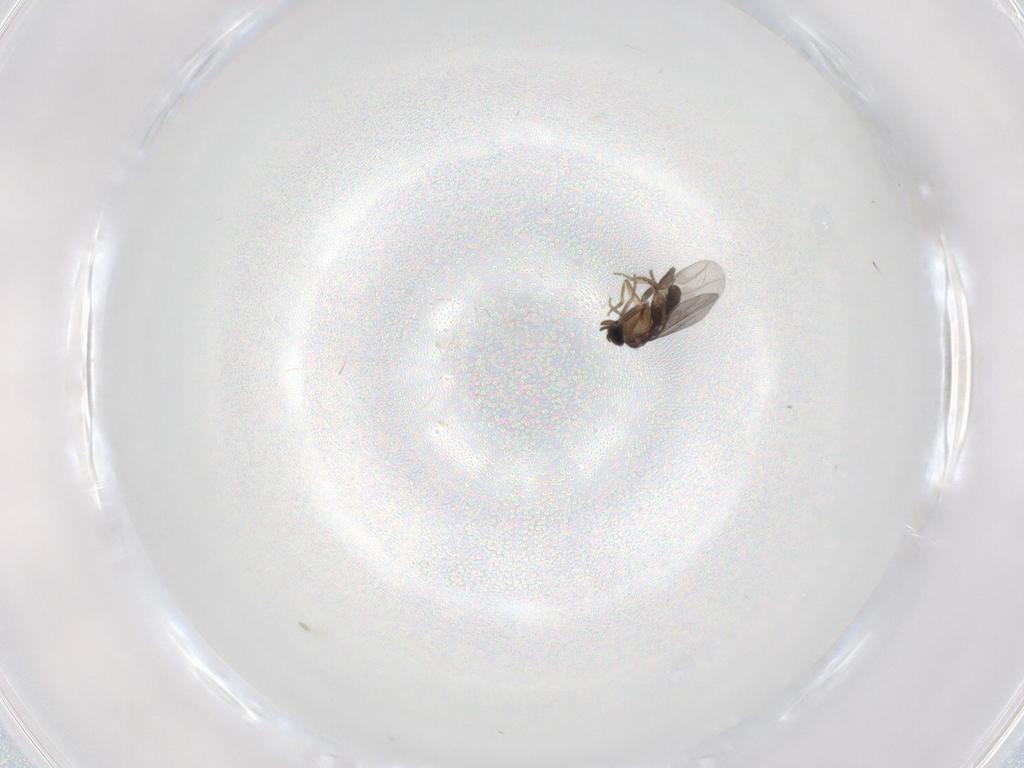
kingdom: Animalia
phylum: Arthropoda
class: Insecta
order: Diptera
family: Stratiomyidae
